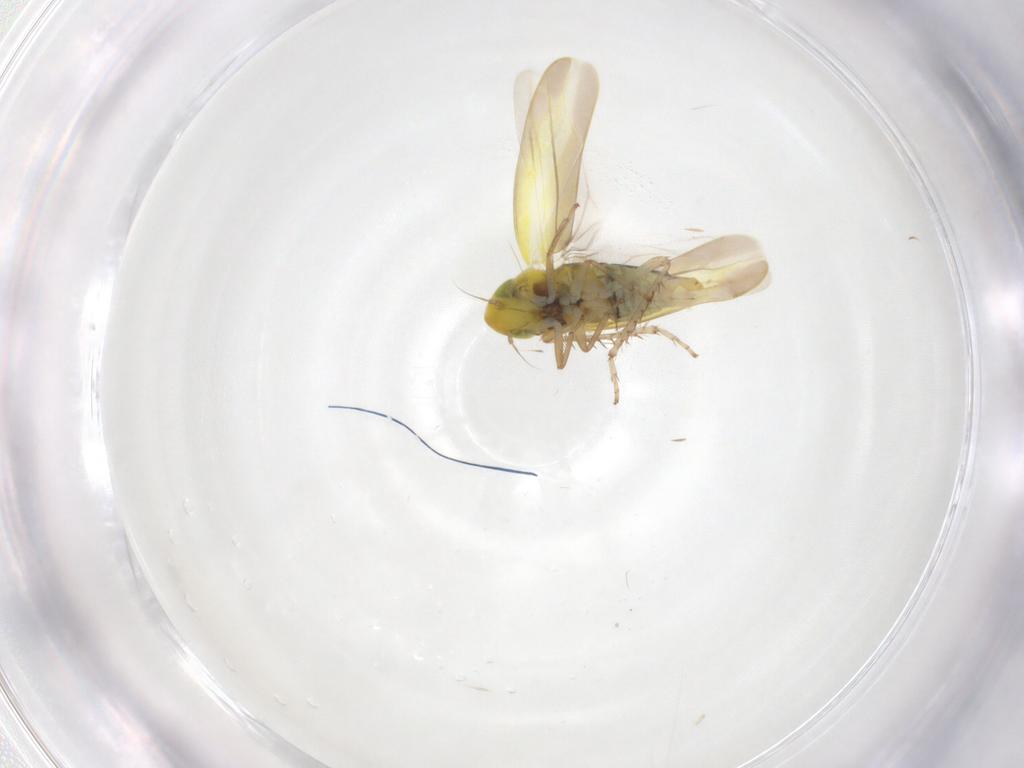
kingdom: Animalia
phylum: Arthropoda
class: Insecta
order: Hemiptera
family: Cicadellidae
